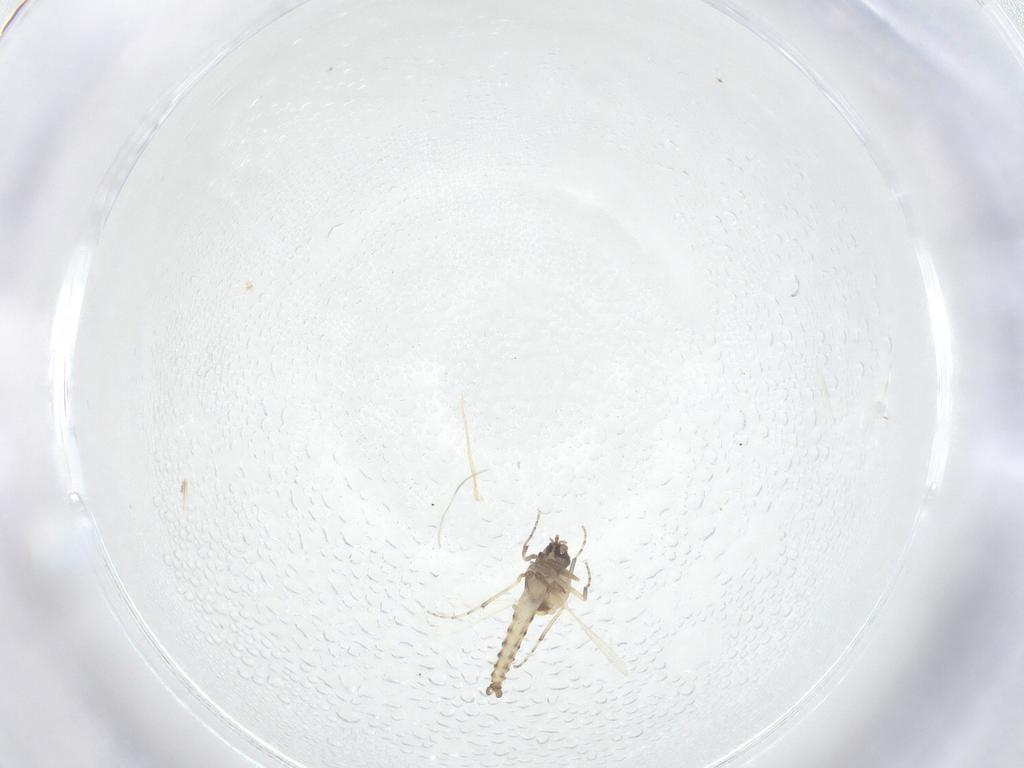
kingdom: Animalia
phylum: Arthropoda
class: Insecta
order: Diptera
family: Ceratopogonidae
